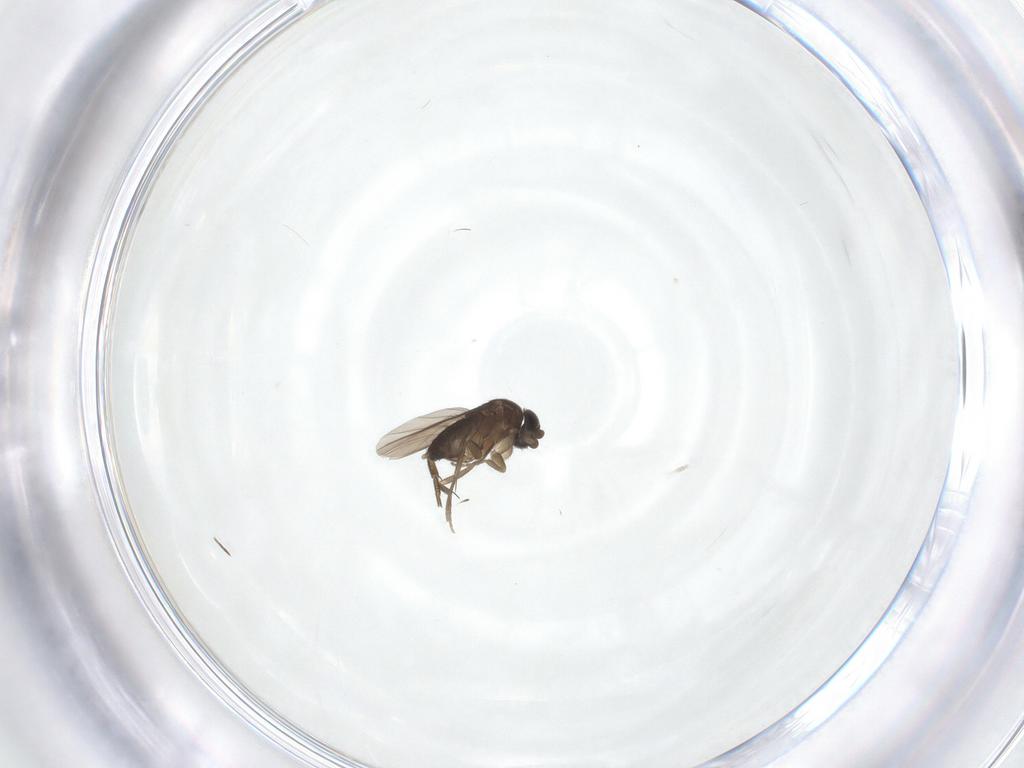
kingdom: Animalia
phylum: Arthropoda
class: Insecta
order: Diptera
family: Phoridae
